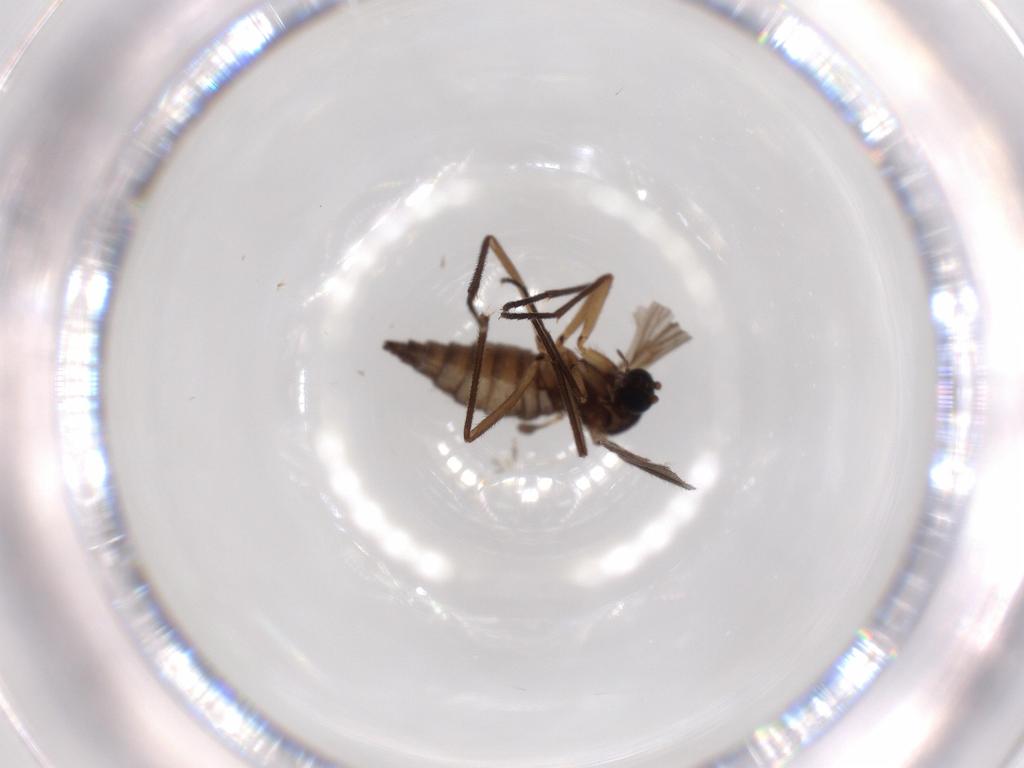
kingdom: Animalia
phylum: Arthropoda
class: Insecta
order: Diptera
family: Sciaridae
